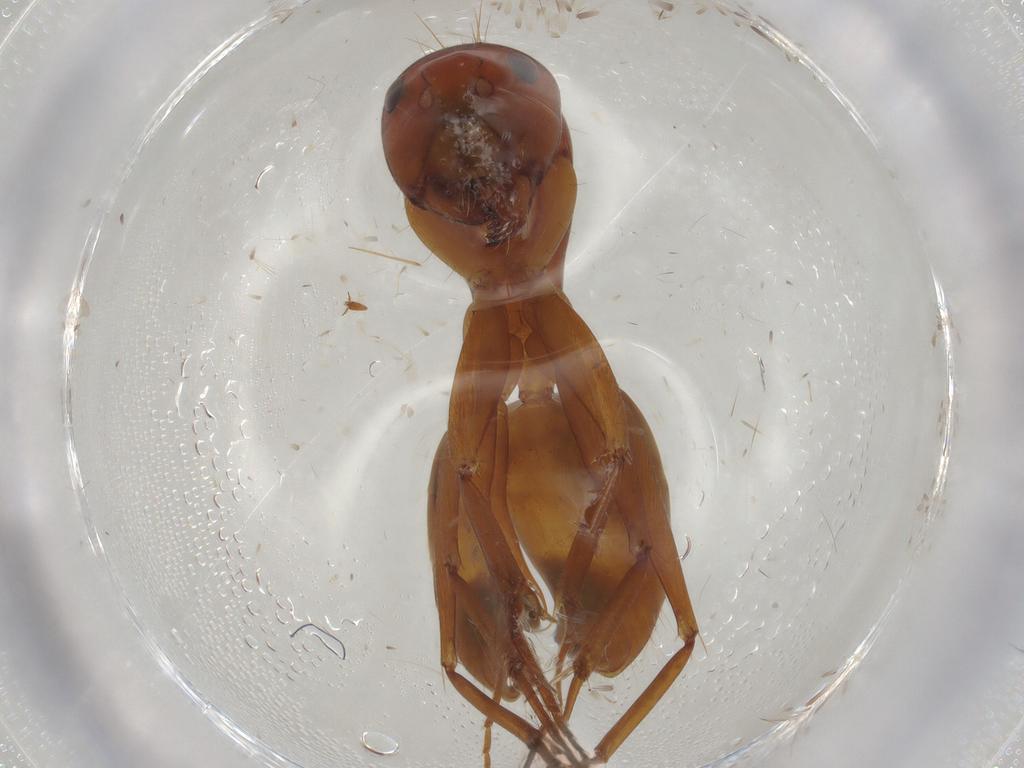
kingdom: Animalia
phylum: Arthropoda
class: Insecta
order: Hymenoptera
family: Formicidae
